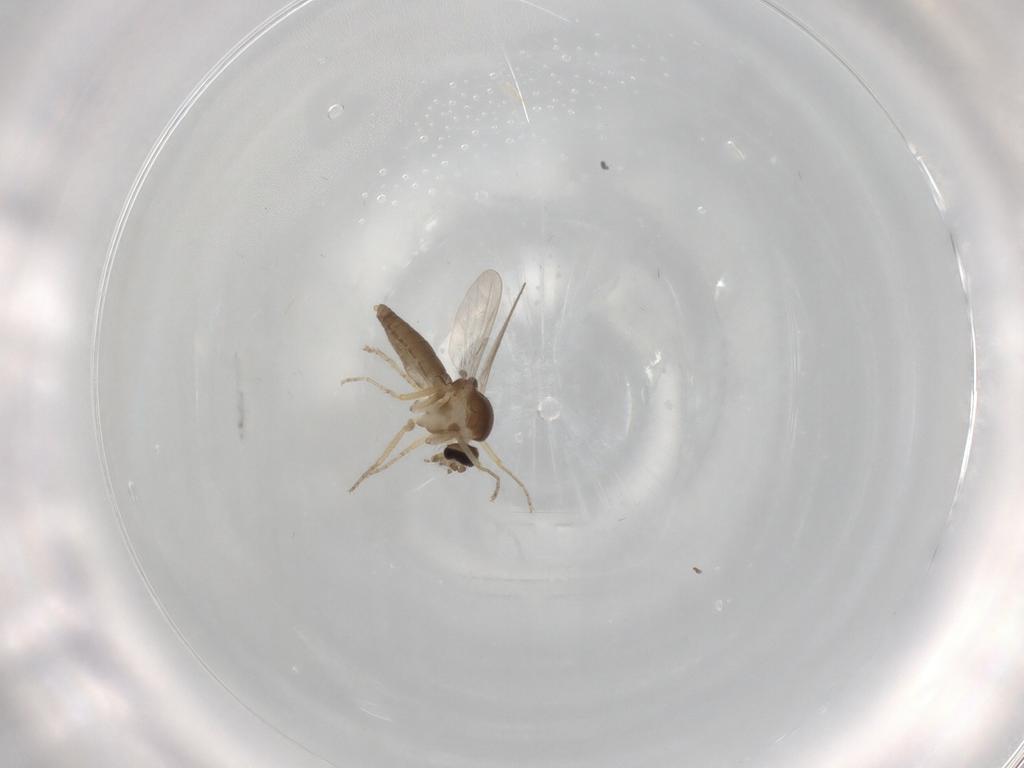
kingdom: Animalia
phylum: Arthropoda
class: Insecta
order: Diptera
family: Ceratopogonidae
